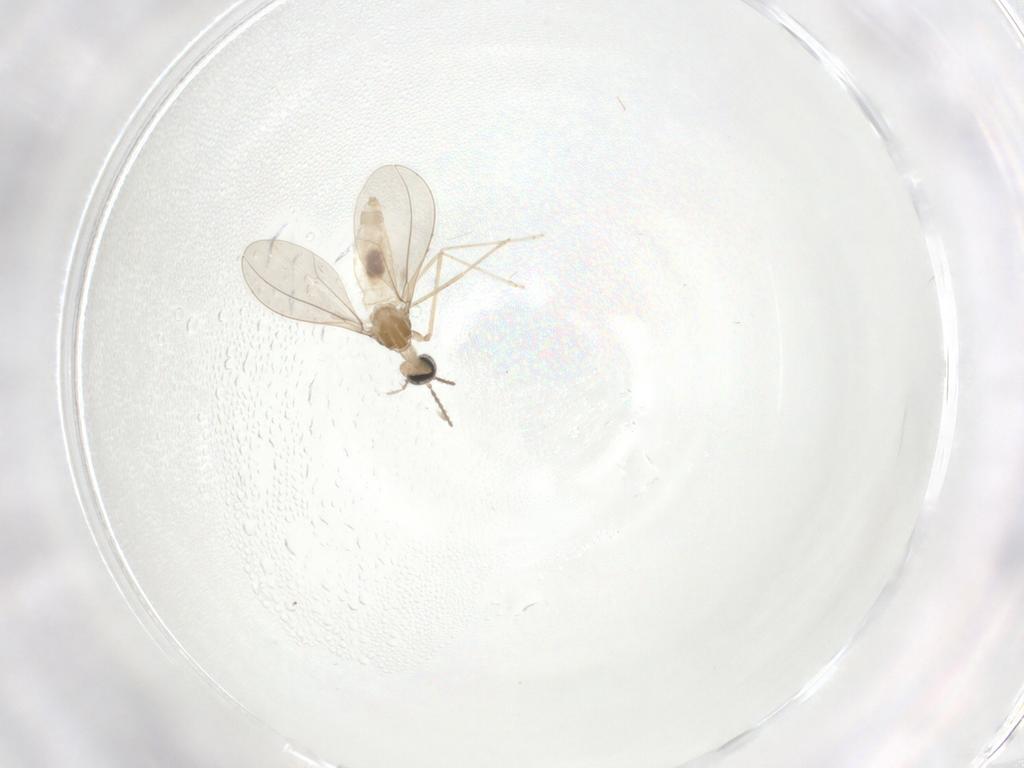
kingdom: Animalia
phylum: Arthropoda
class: Insecta
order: Diptera
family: Cecidomyiidae
